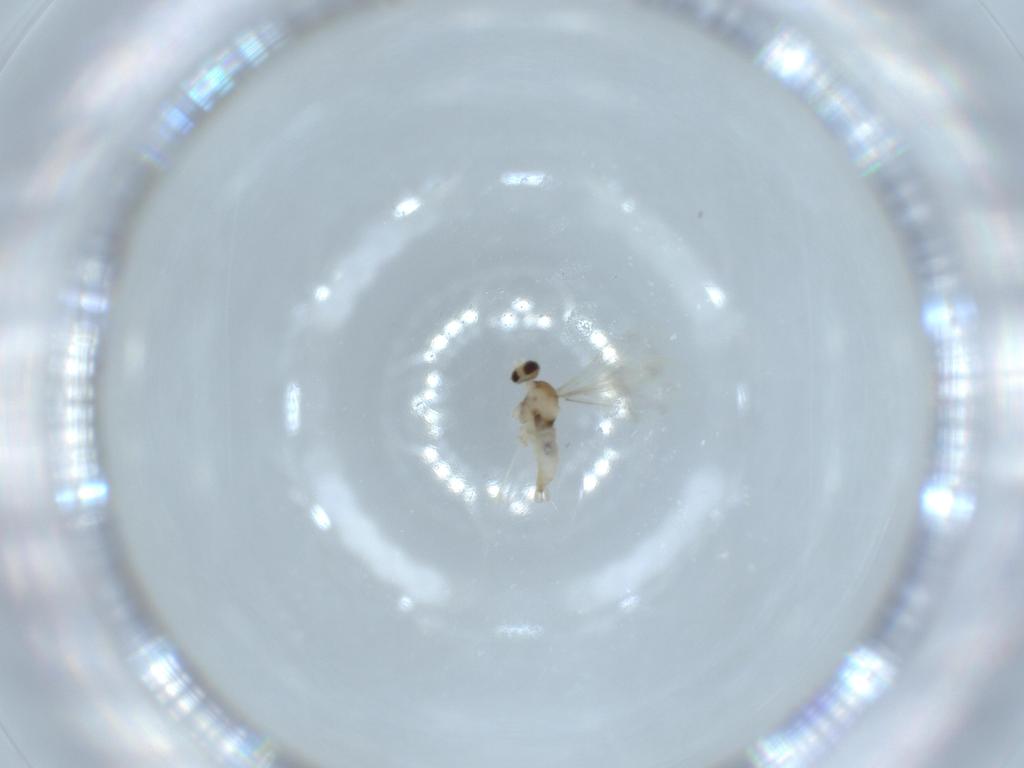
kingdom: Animalia
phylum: Arthropoda
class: Insecta
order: Diptera
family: Cecidomyiidae
